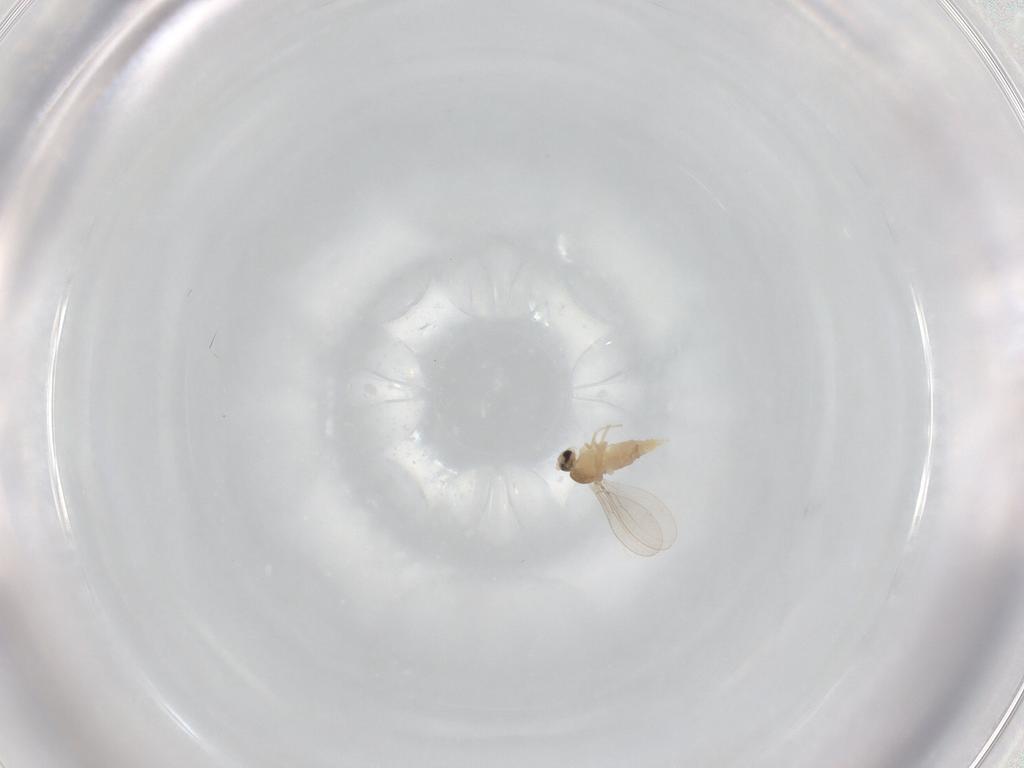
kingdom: Animalia
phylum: Arthropoda
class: Insecta
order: Diptera
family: Cecidomyiidae
